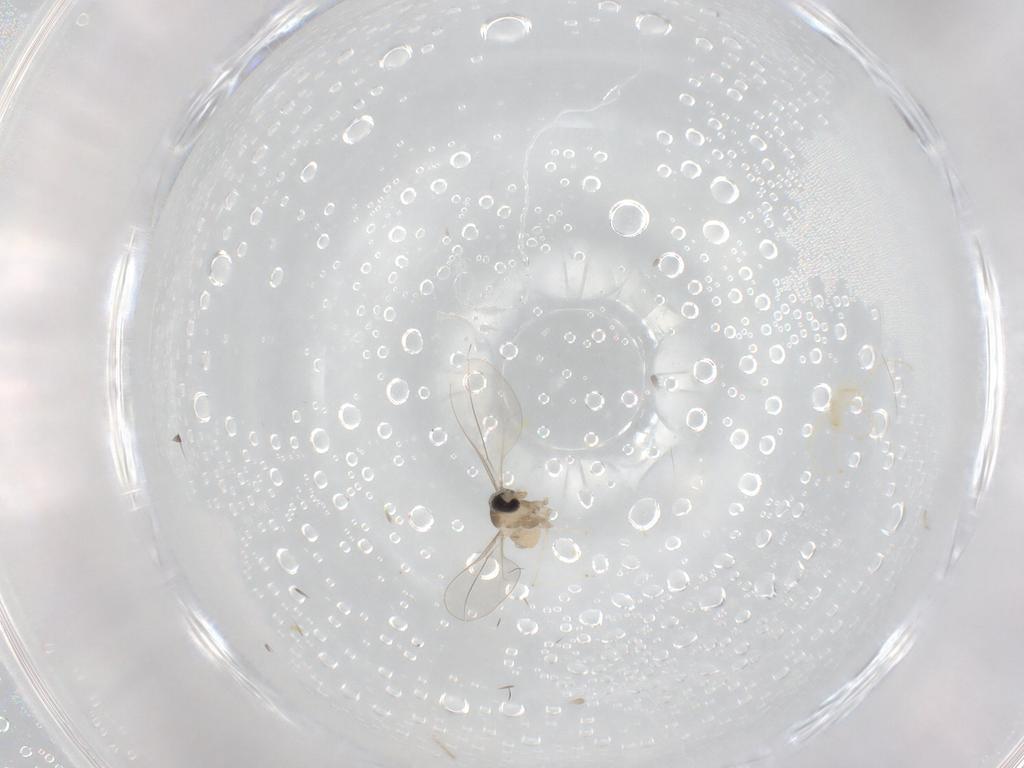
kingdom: Animalia
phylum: Arthropoda
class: Insecta
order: Diptera
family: Cecidomyiidae
